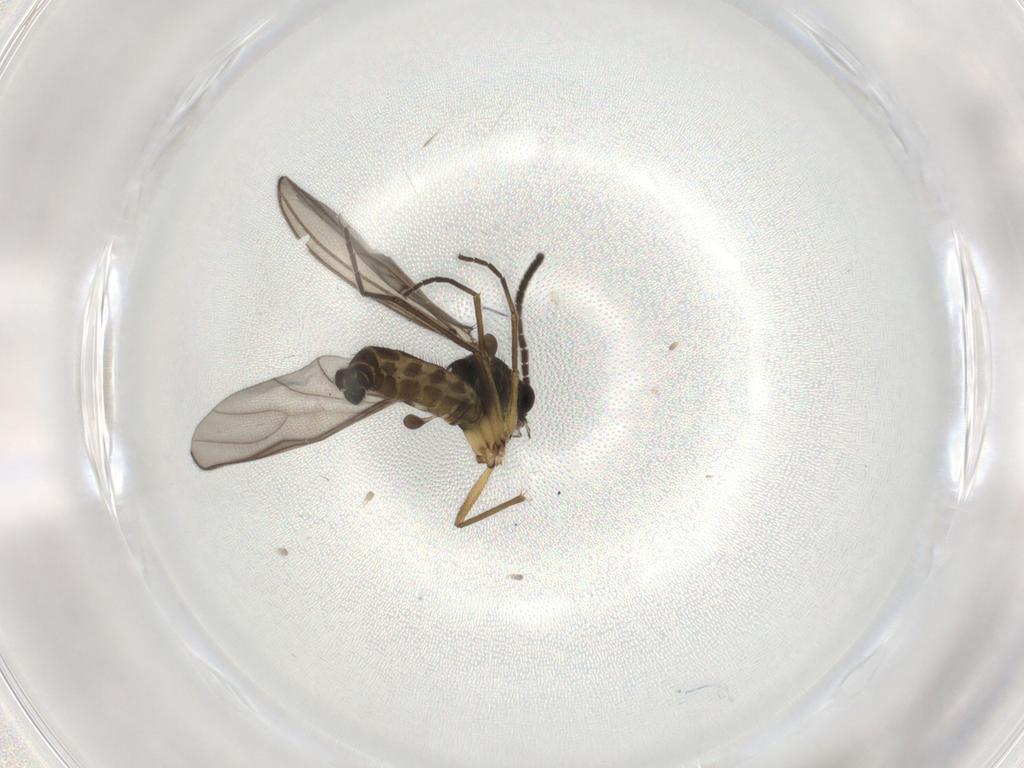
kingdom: Animalia
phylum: Arthropoda
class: Insecta
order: Diptera
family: Sciaridae
